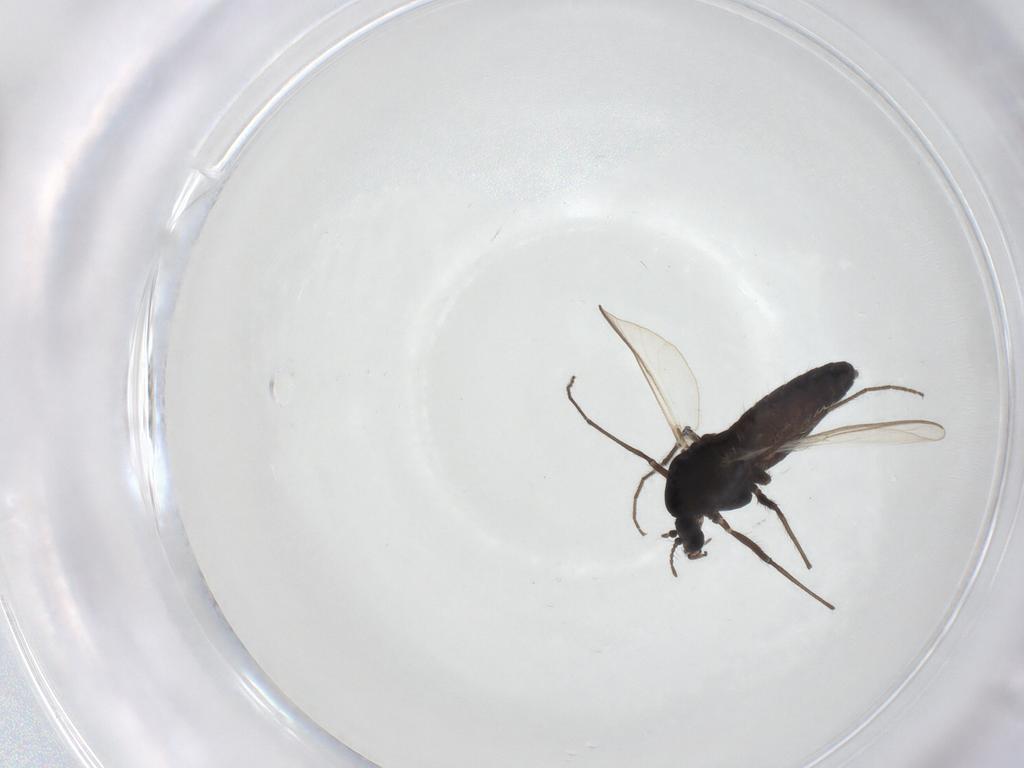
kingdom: Animalia
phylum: Arthropoda
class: Insecta
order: Diptera
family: Chironomidae
